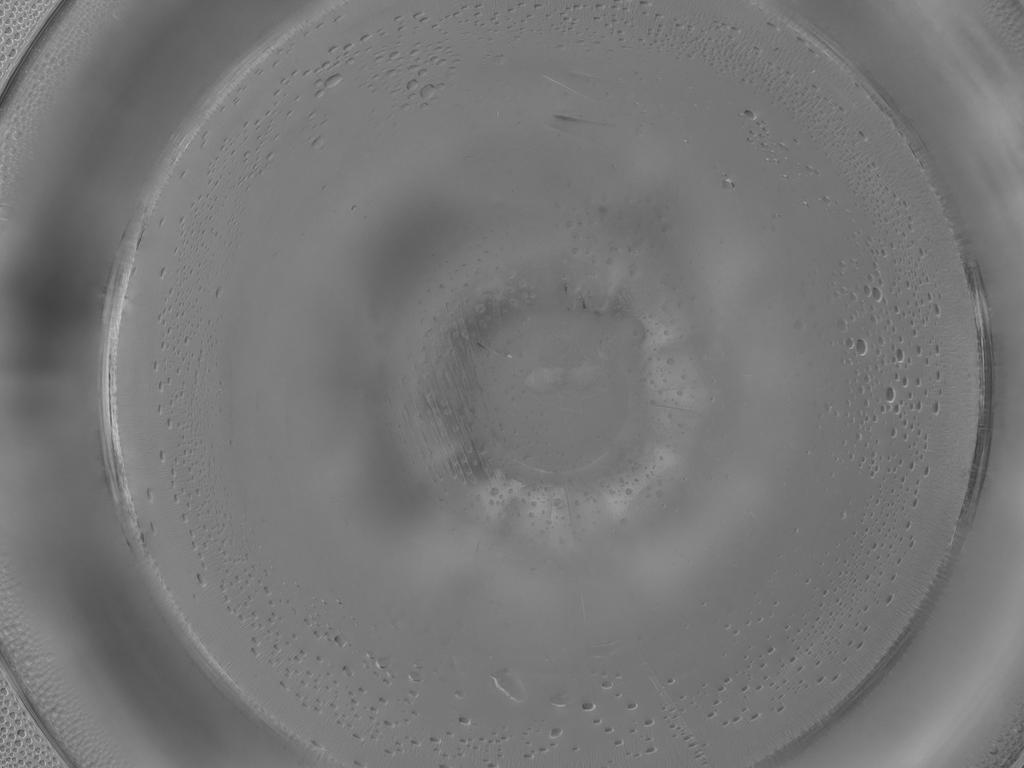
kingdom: Animalia
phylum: Arthropoda
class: Insecta
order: Diptera
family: Cecidomyiidae
